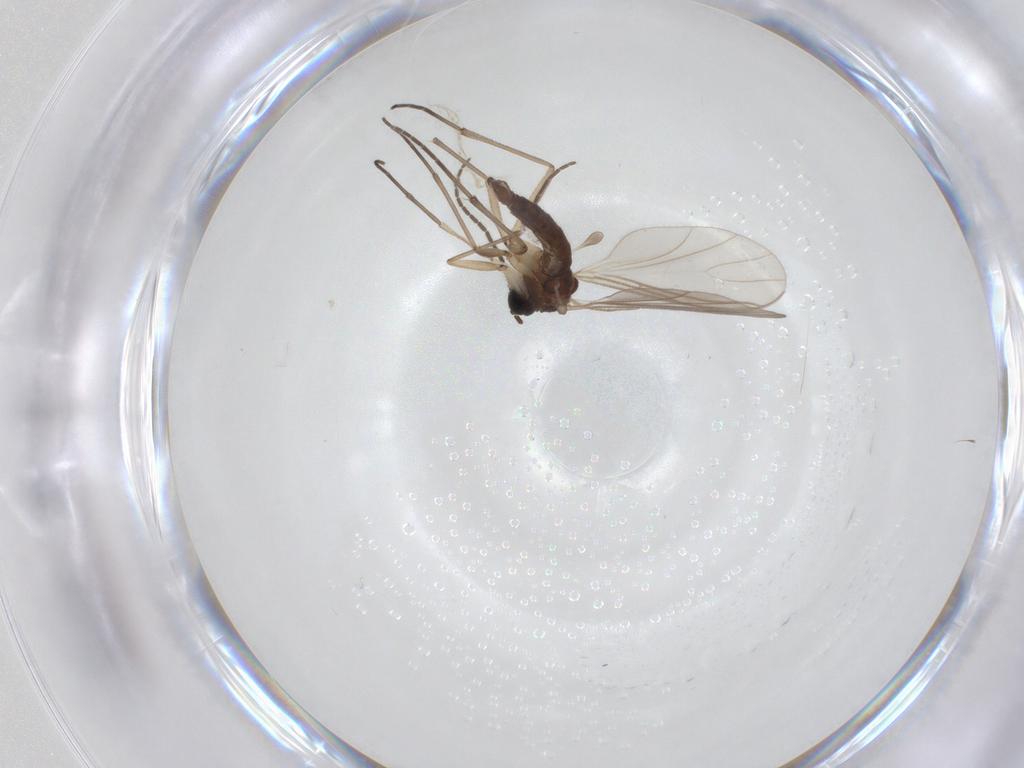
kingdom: Animalia
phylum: Arthropoda
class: Insecta
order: Diptera
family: Sciaridae
